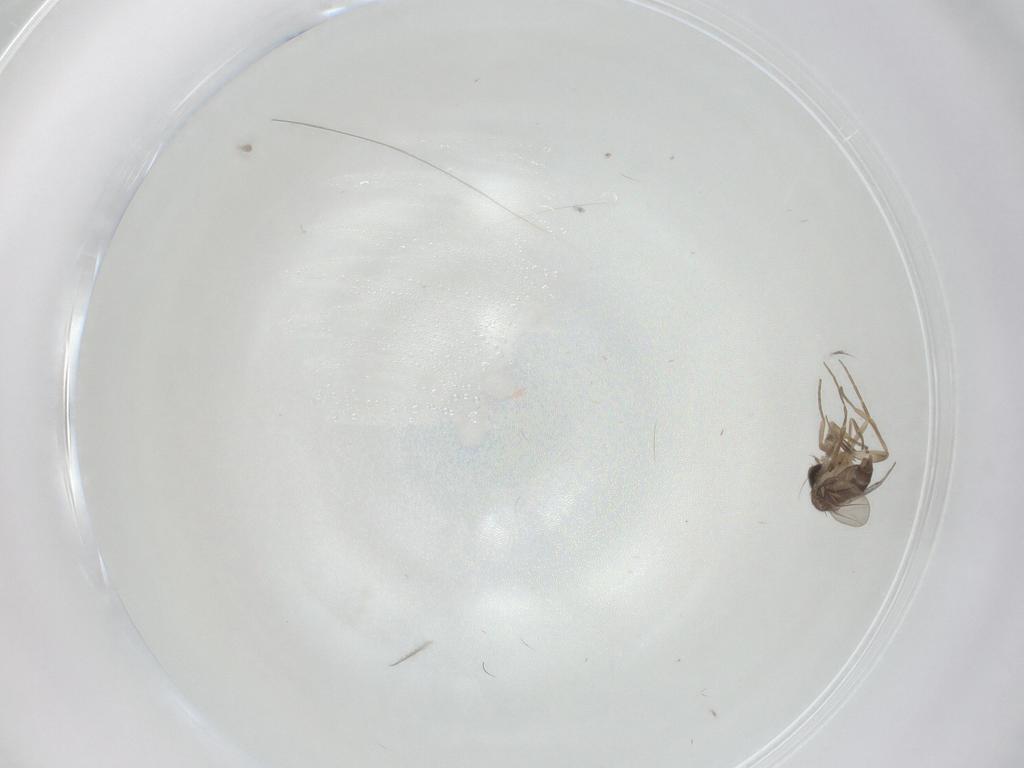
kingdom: Animalia
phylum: Arthropoda
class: Insecta
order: Diptera
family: Phoridae
